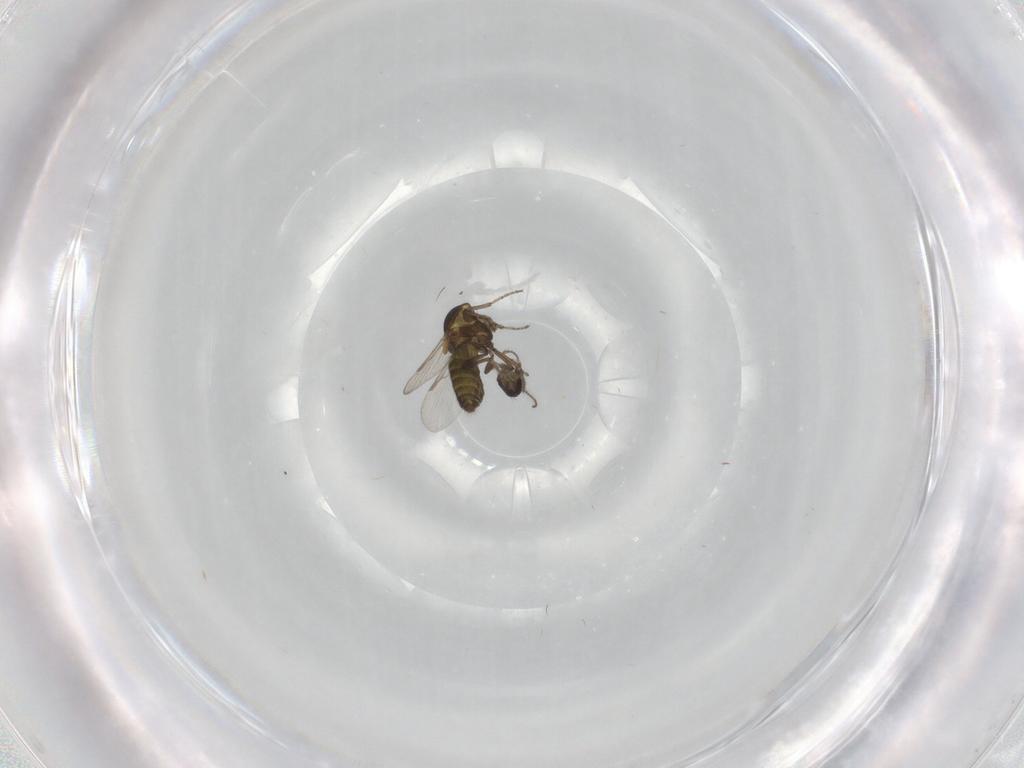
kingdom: Animalia
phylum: Arthropoda
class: Insecta
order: Diptera
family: Ceratopogonidae
